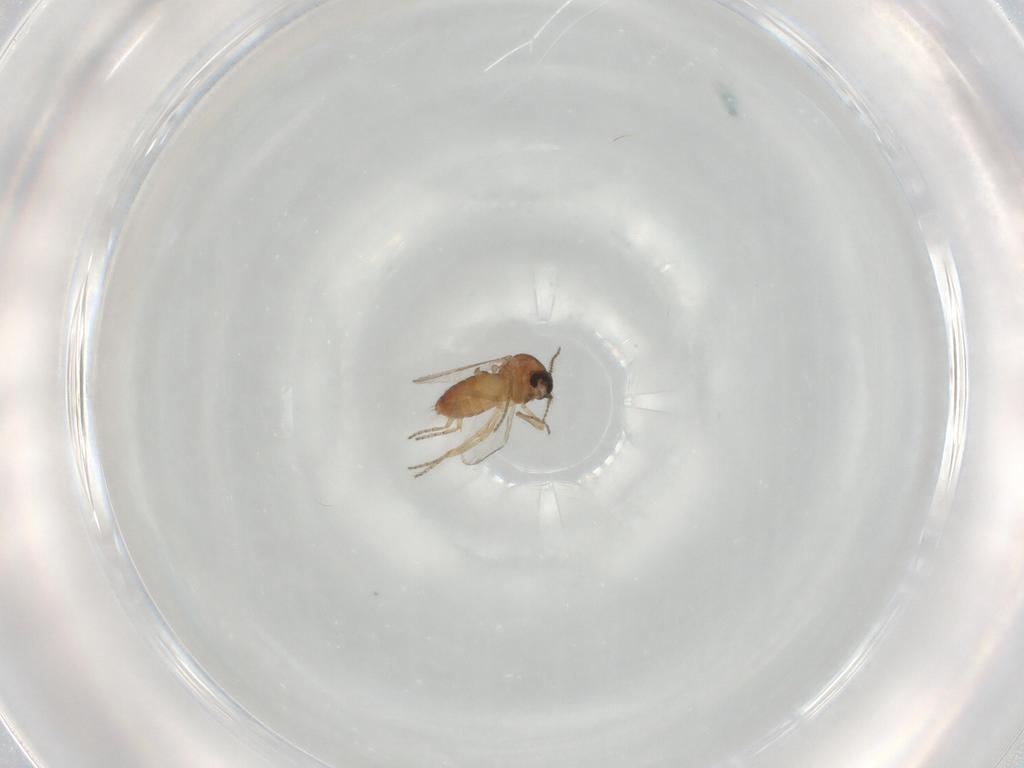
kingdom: Animalia
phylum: Arthropoda
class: Insecta
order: Diptera
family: Ceratopogonidae
